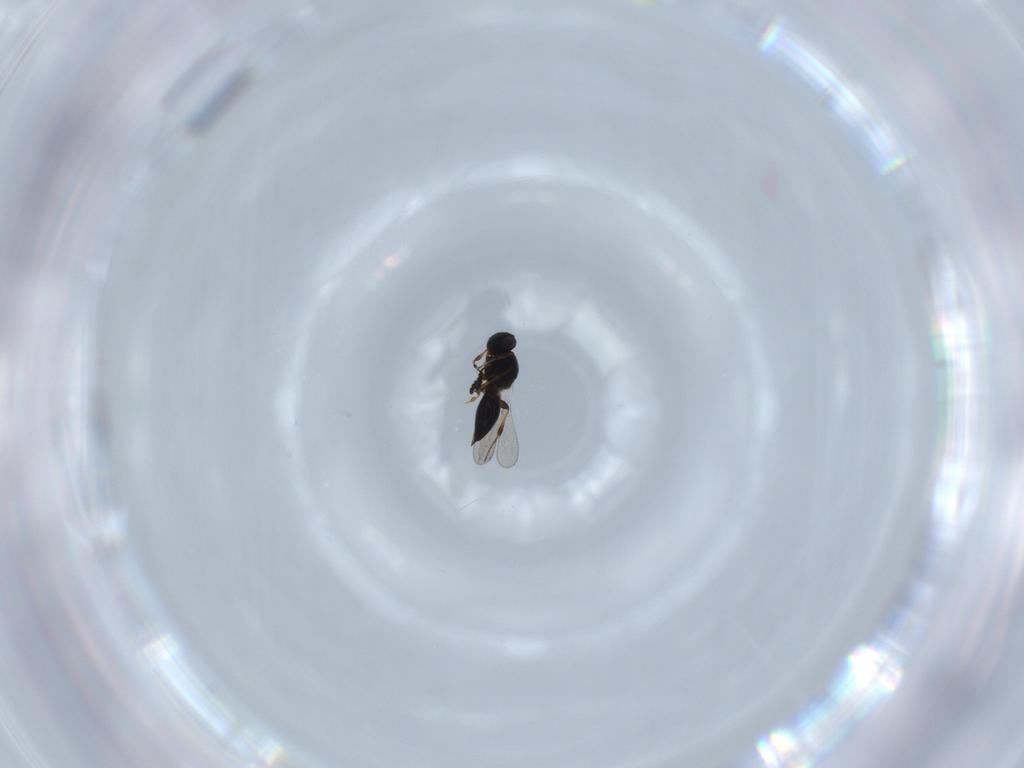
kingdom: Animalia
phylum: Arthropoda
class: Insecta
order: Hymenoptera
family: Platygastridae
